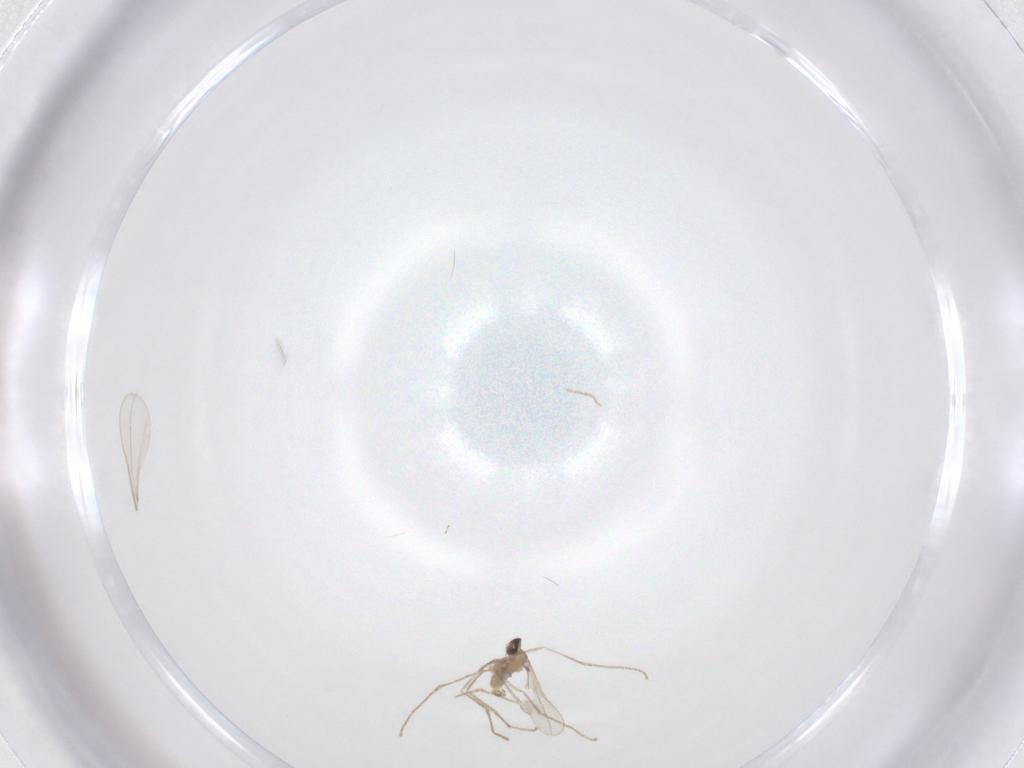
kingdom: Animalia
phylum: Arthropoda
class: Insecta
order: Diptera
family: Cecidomyiidae
